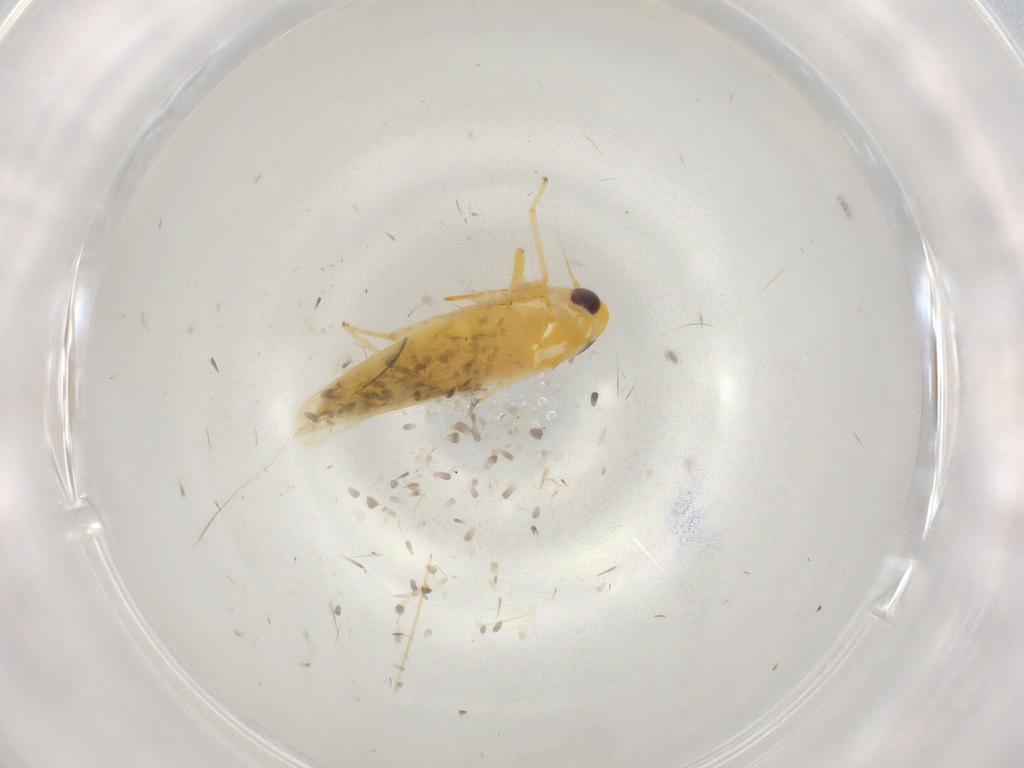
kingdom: Animalia
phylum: Arthropoda
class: Insecta
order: Hemiptera
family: Cicadellidae
